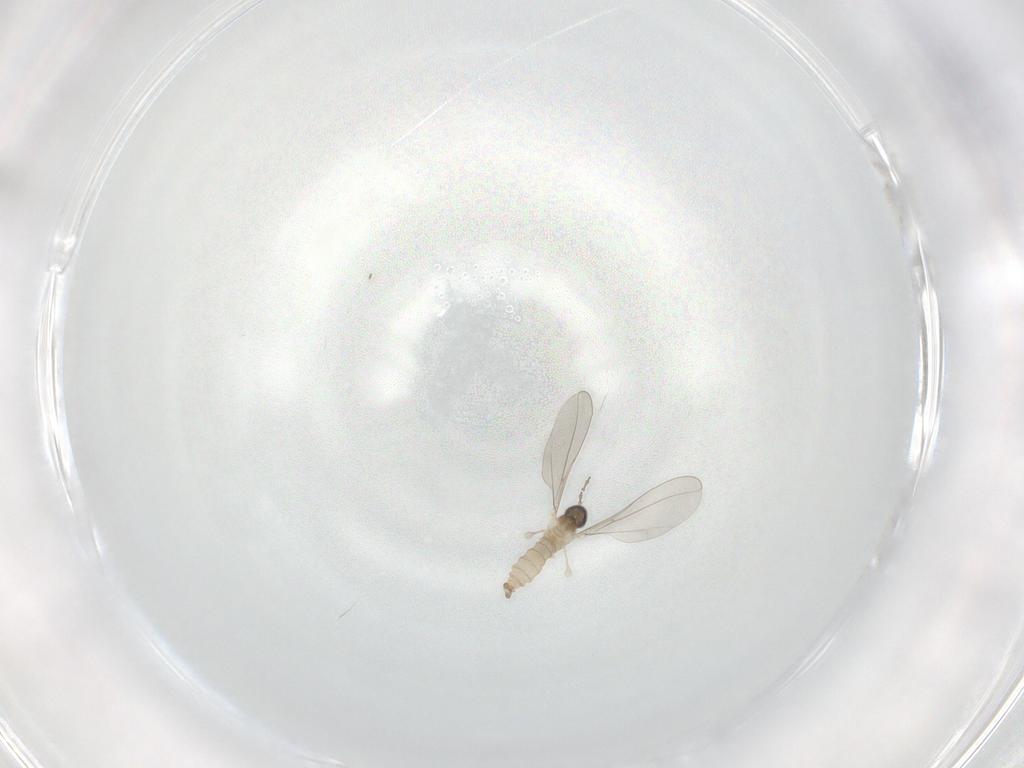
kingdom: Animalia
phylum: Arthropoda
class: Insecta
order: Diptera
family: Cecidomyiidae
